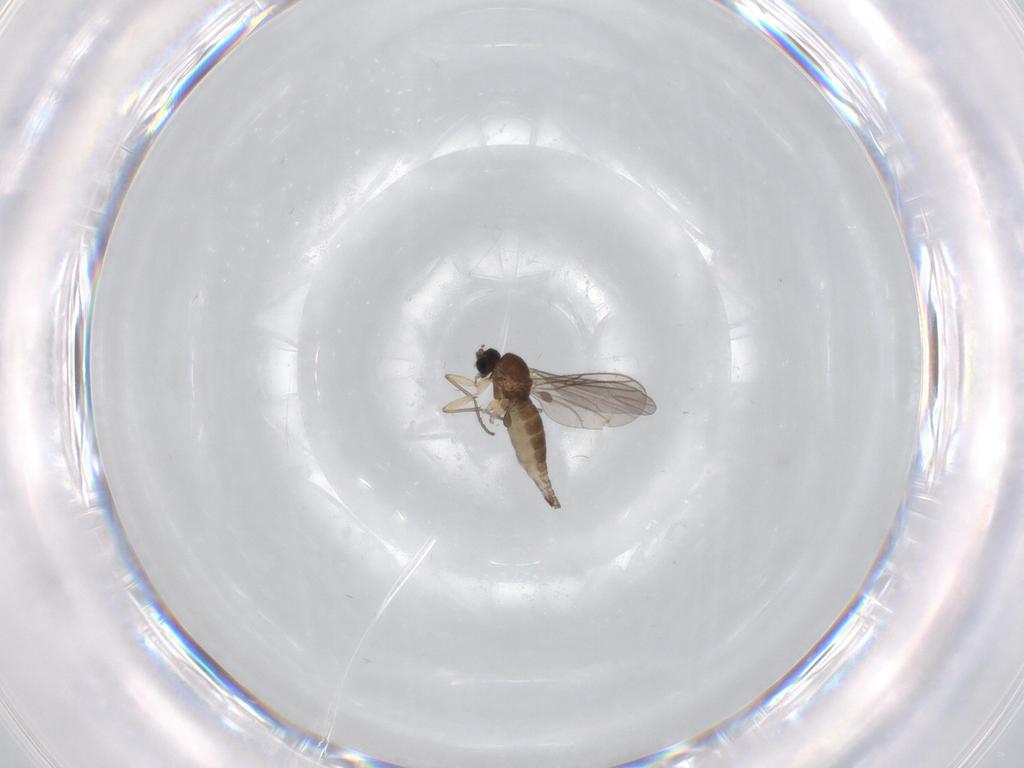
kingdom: Animalia
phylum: Arthropoda
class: Insecta
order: Diptera
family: Sciaridae
